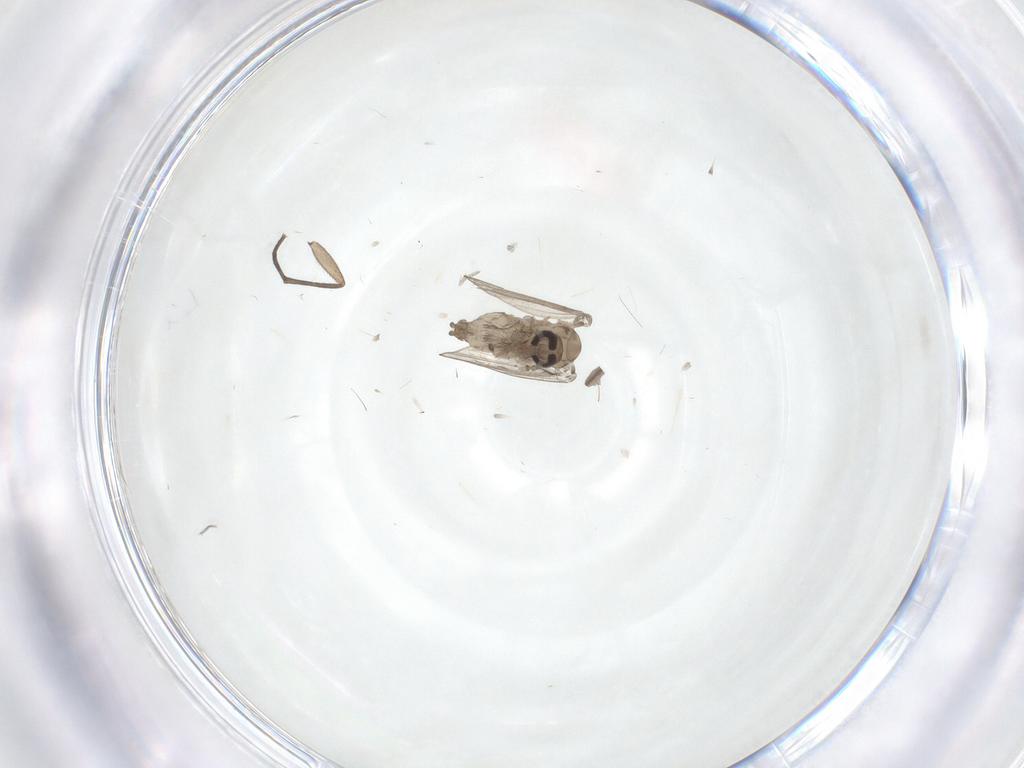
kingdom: Animalia
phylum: Arthropoda
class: Insecta
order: Diptera
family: Psychodidae
